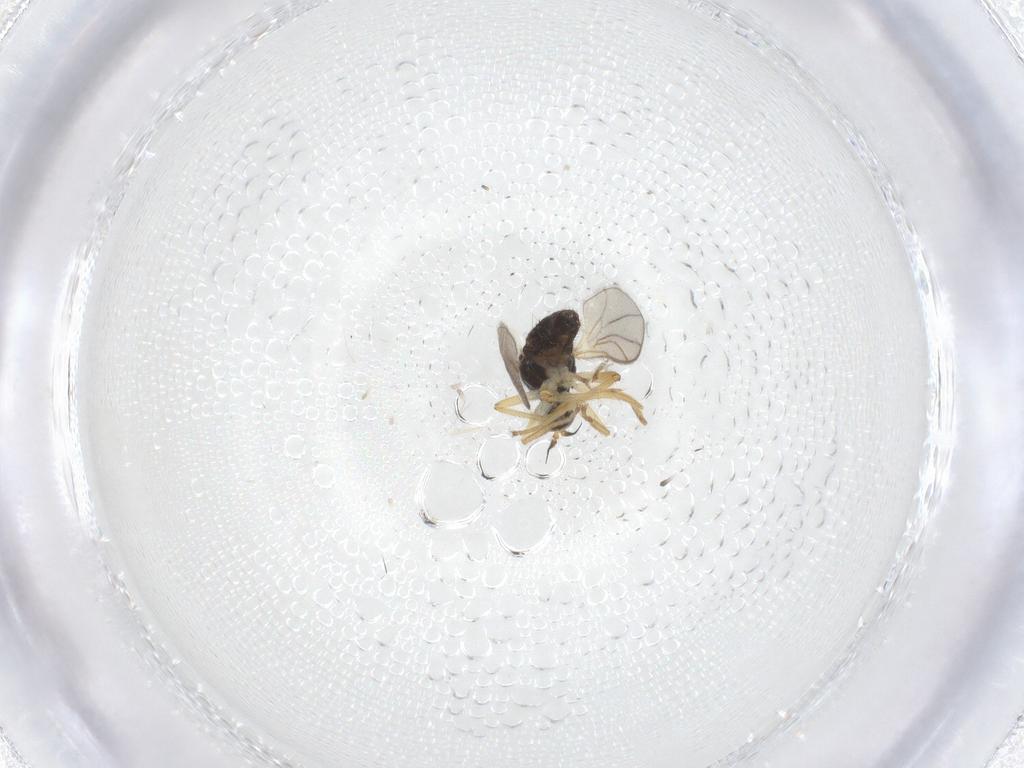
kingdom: Animalia
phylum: Arthropoda
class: Insecta
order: Diptera
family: Hybotidae
